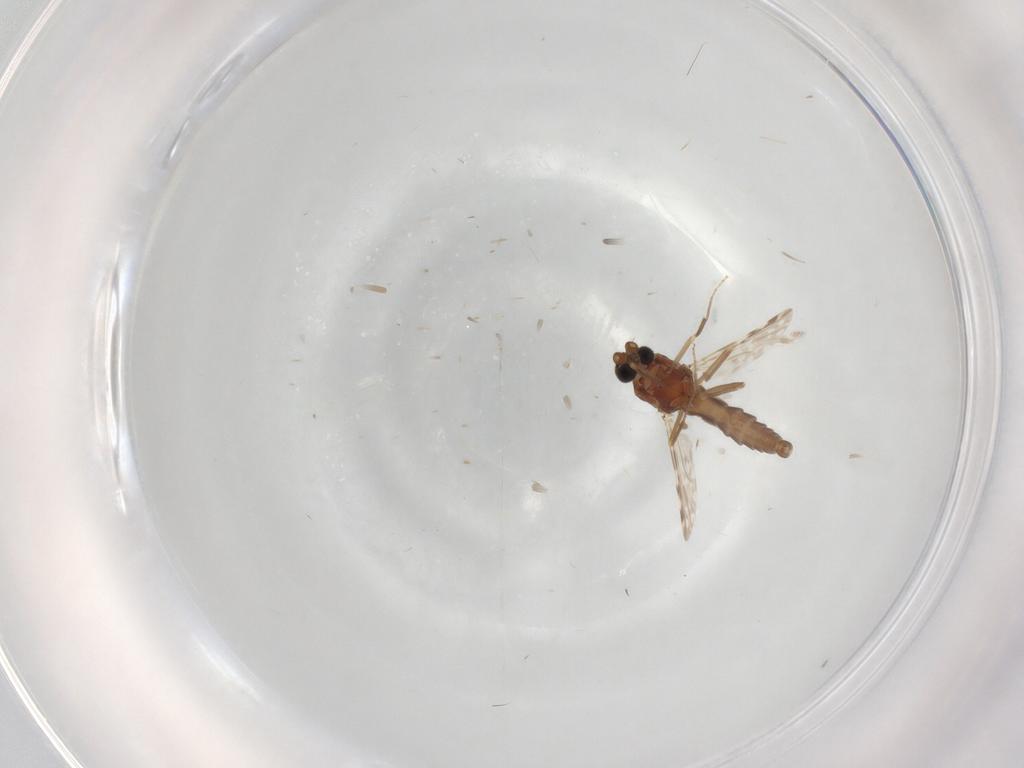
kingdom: Animalia
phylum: Arthropoda
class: Insecta
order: Diptera
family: Ceratopogonidae
